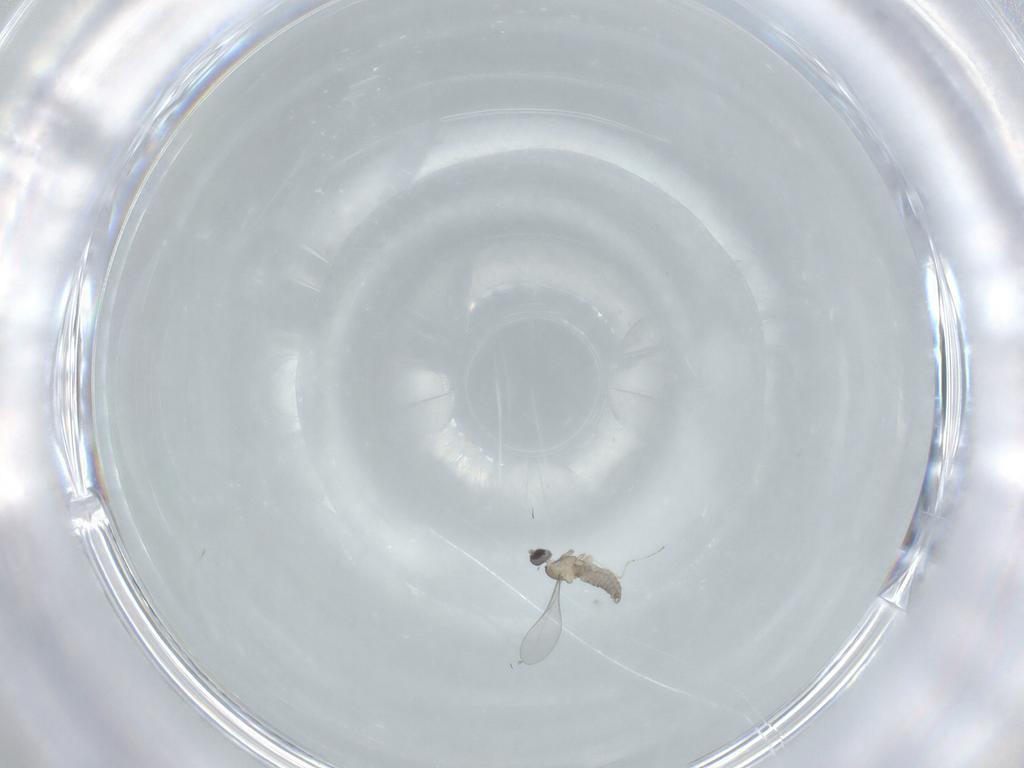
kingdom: Animalia
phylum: Arthropoda
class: Insecta
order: Diptera
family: Cecidomyiidae
